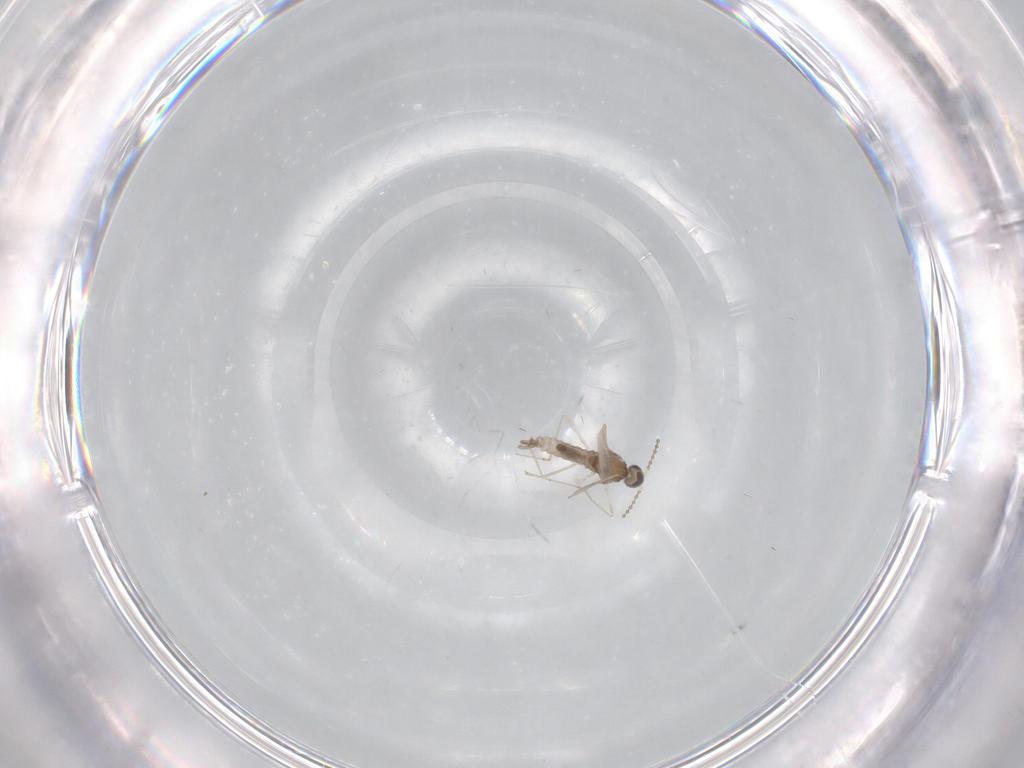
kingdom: Animalia
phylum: Arthropoda
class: Insecta
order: Diptera
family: Cecidomyiidae
